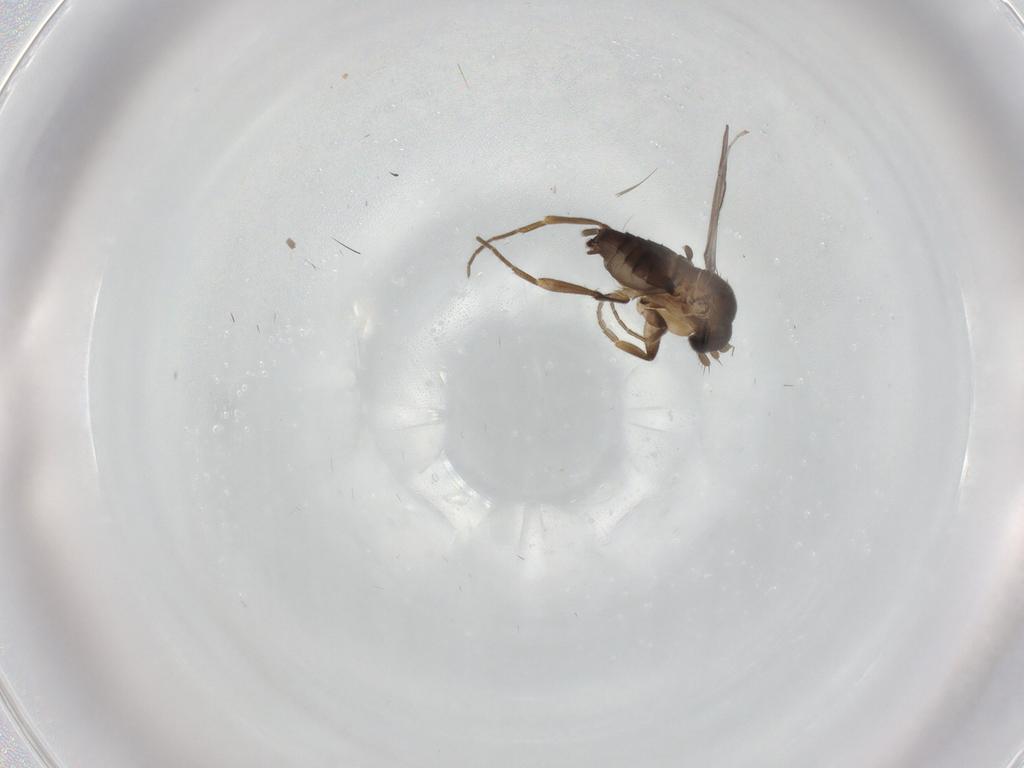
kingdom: Animalia
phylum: Arthropoda
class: Insecta
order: Diptera
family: Phoridae
